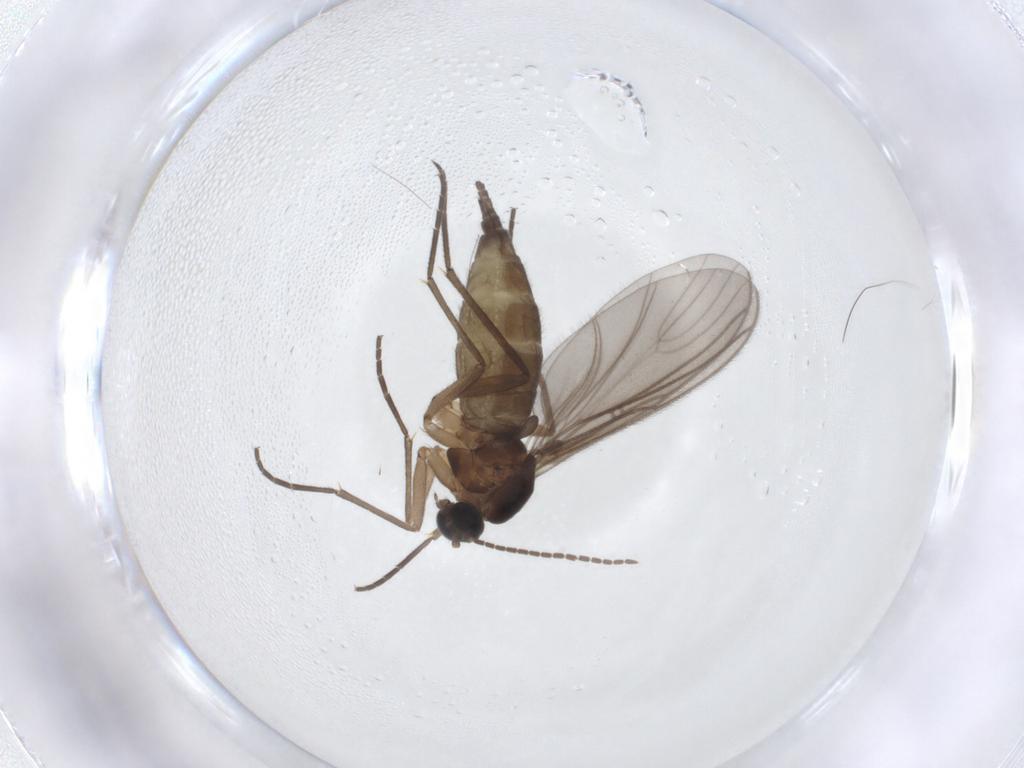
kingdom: Animalia
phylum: Arthropoda
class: Insecta
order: Diptera
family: Sciaridae
